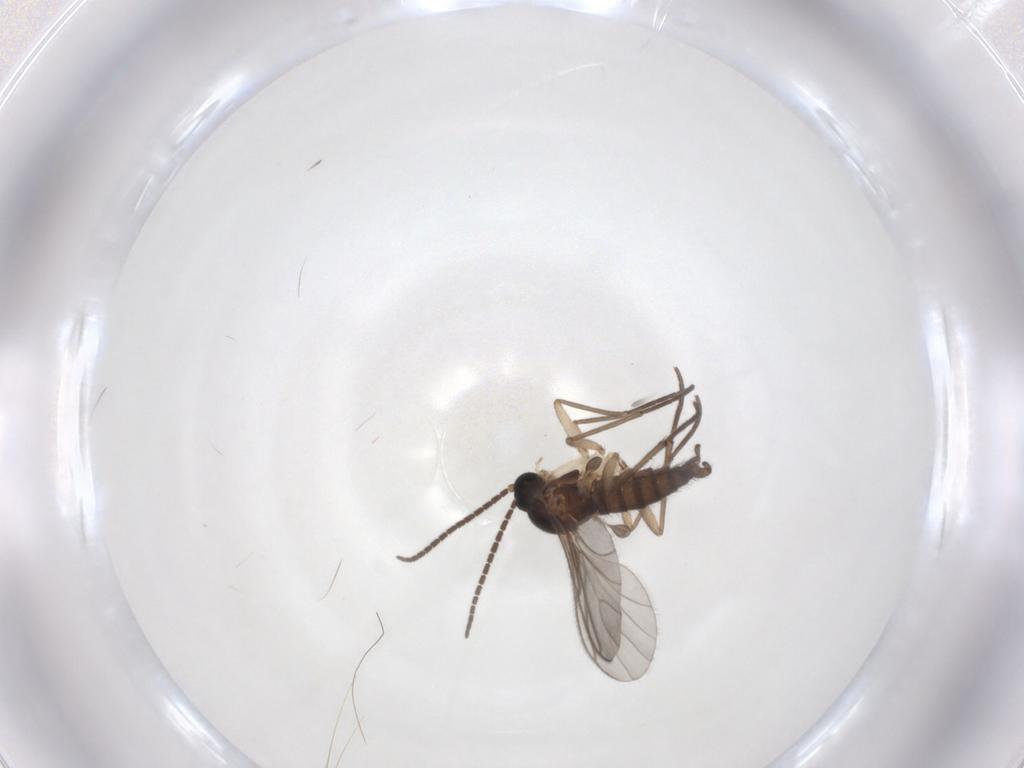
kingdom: Animalia
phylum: Arthropoda
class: Insecta
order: Diptera
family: Sciaridae
